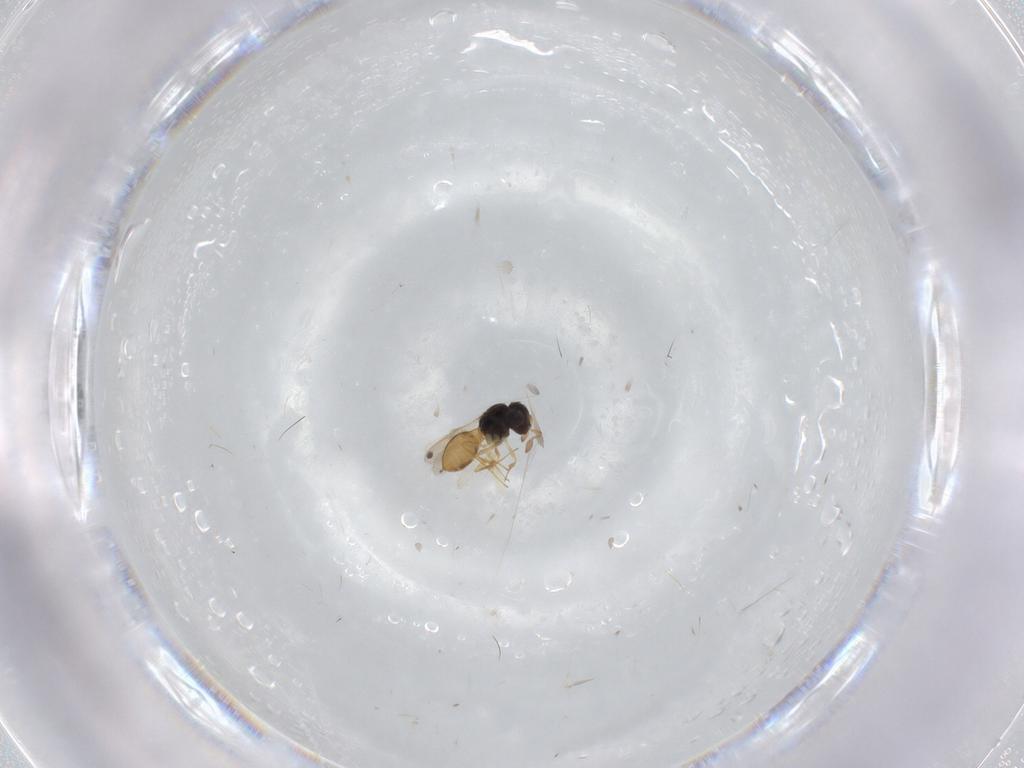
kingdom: Animalia
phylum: Arthropoda
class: Insecta
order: Hymenoptera
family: Scelionidae
